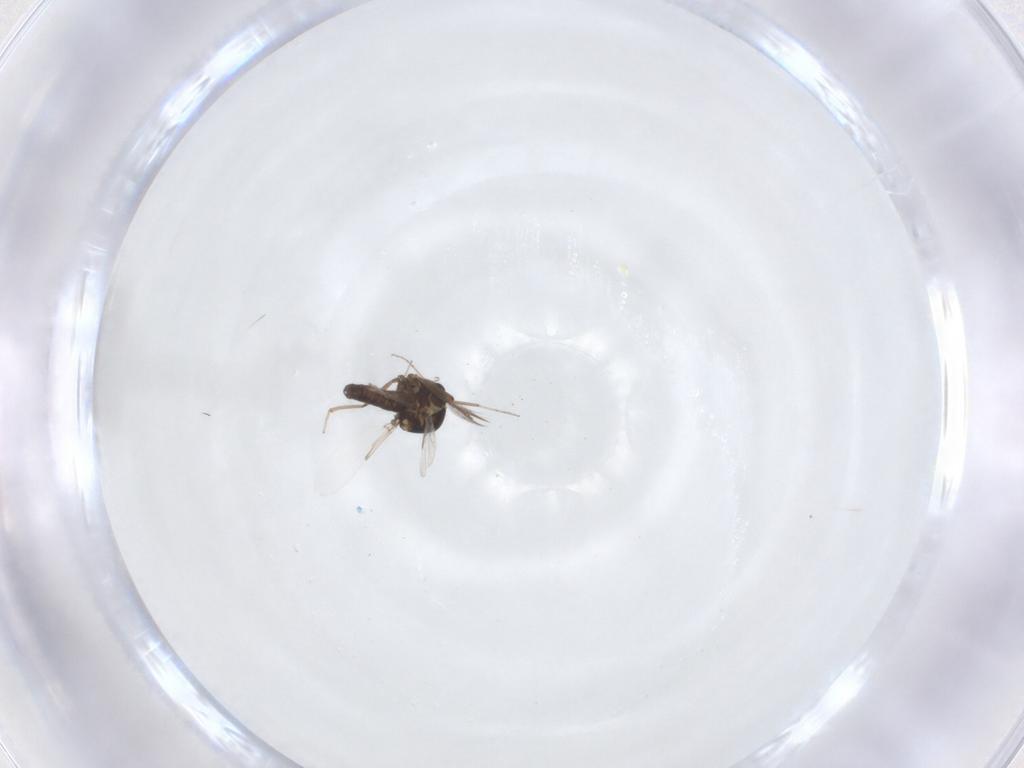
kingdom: Animalia
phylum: Arthropoda
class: Insecta
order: Diptera
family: Ceratopogonidae
